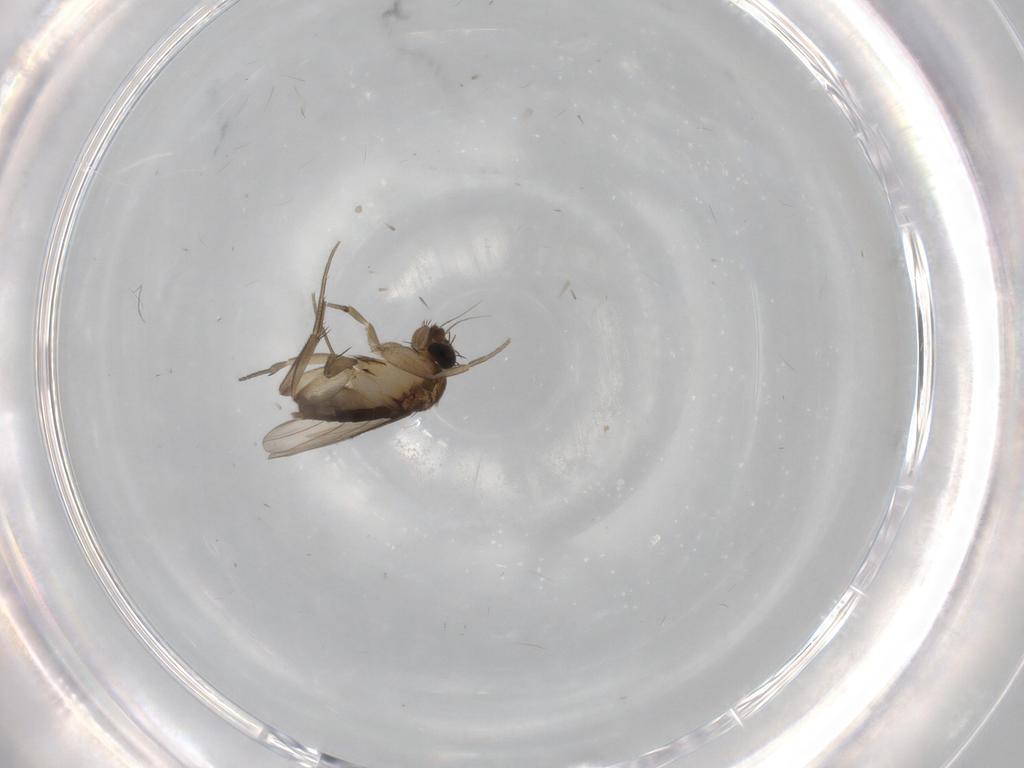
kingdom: Animalia
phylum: Arthropoda
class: Insecta
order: Diptera
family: Phoridae
